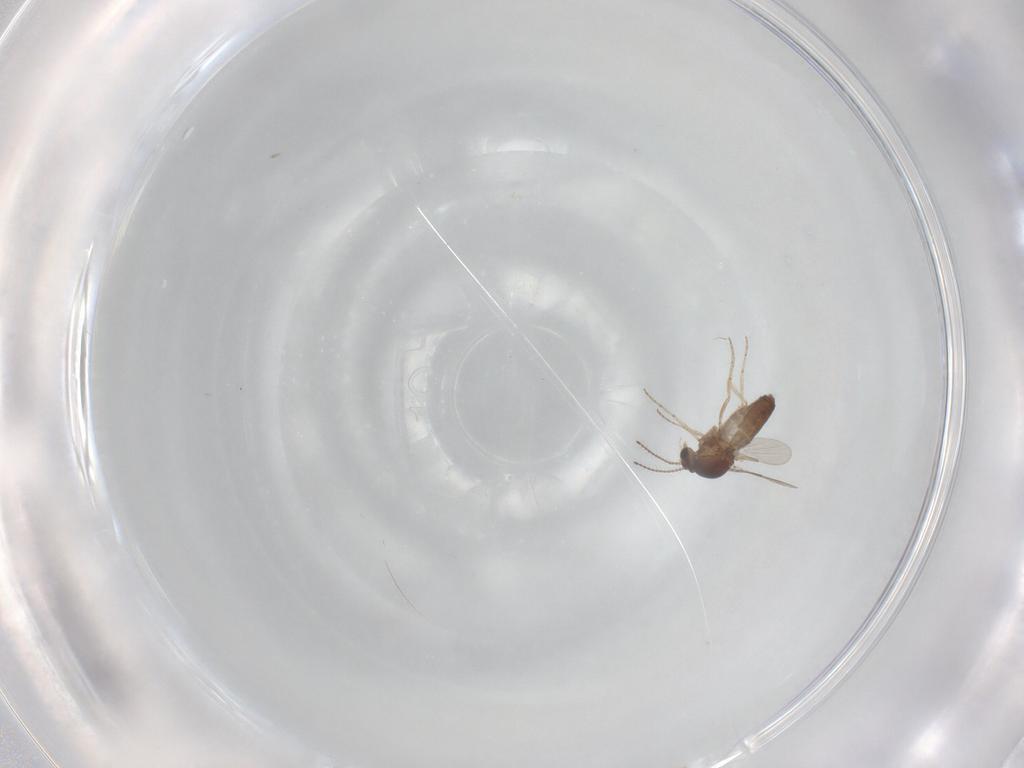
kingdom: Animalia
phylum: Arthropoda
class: Insecta
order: Diptera
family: Ceratopogonidae
